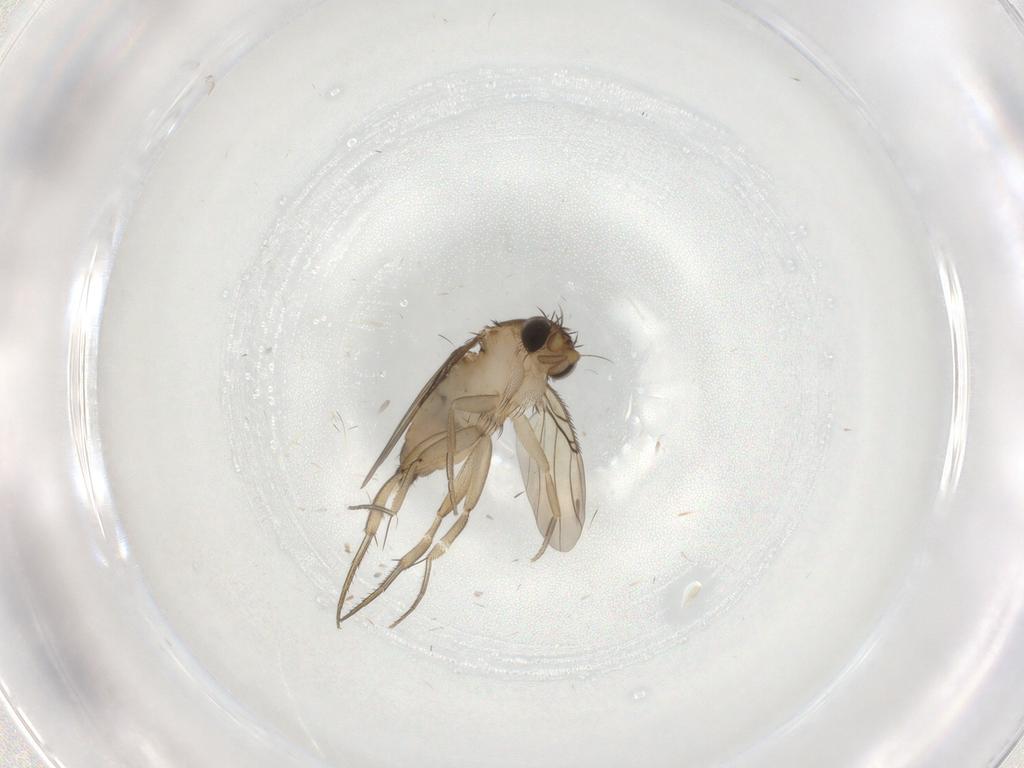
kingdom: Animalia
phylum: Arthropoda
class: Insecta
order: Diptera
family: Phoridae
